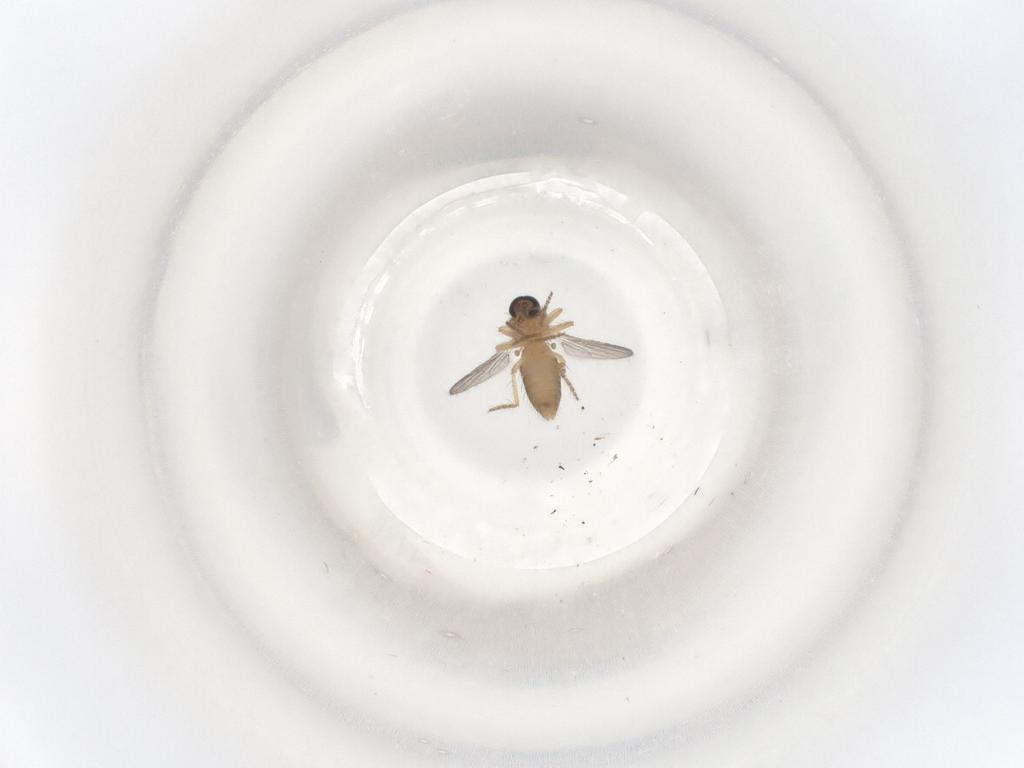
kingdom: Animalia
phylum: Arthropoda
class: Insecta
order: Diptera
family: Ceratopogonidae
